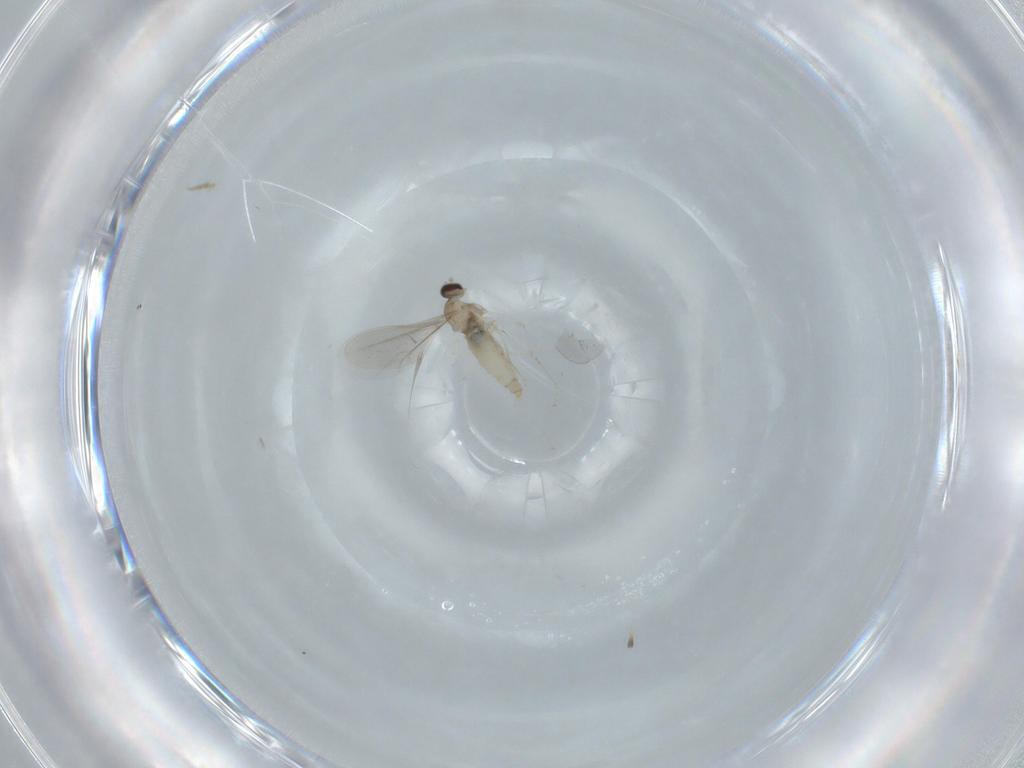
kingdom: Animalia
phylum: Arthropoda
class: Insecta
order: Diptera
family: Cecidomyiidae
